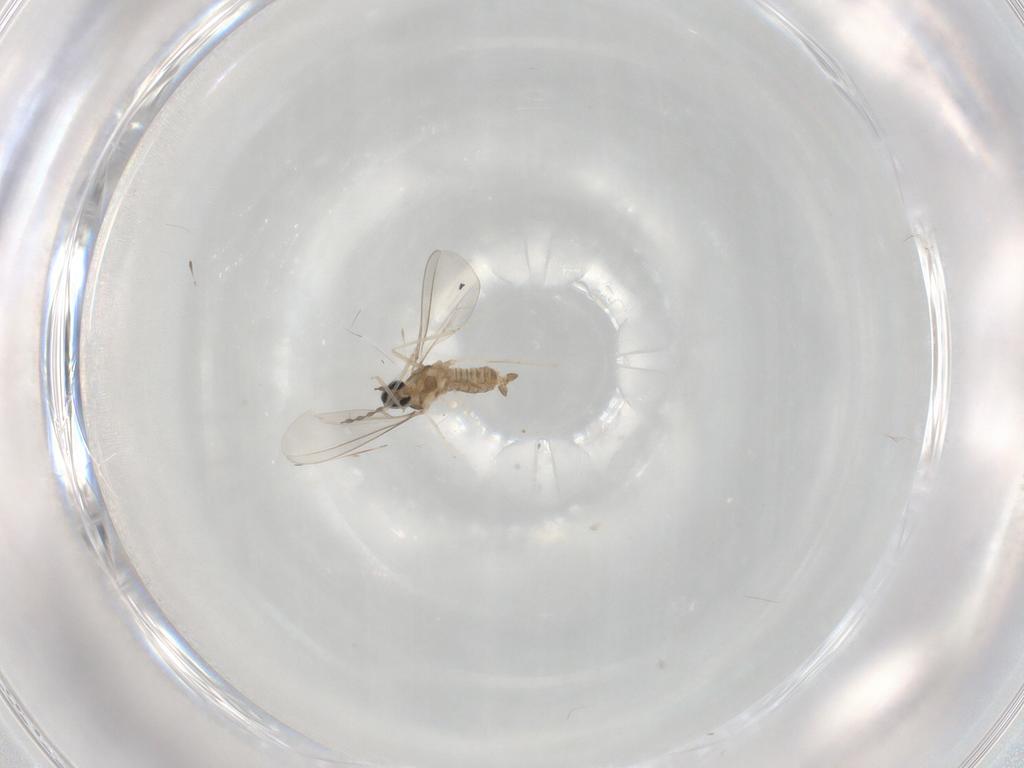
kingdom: Animalia
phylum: Arthropoda
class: Insecta
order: Diptera
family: Cecidomyiidae
